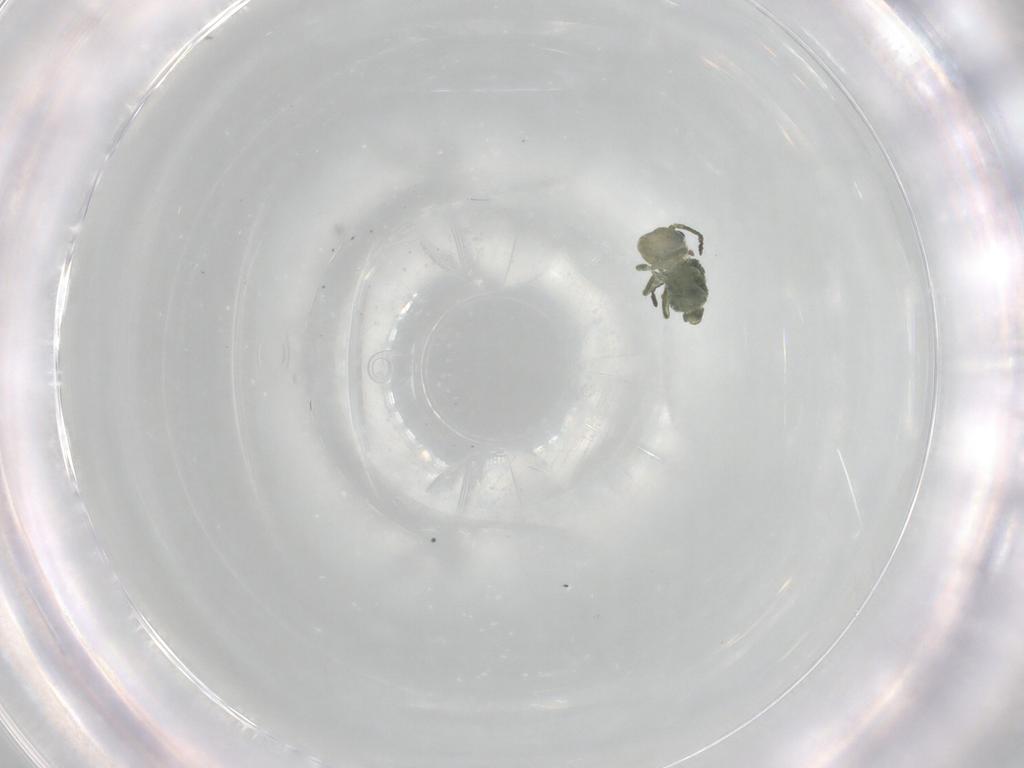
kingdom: Animalia
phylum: Arthropoda
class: Collembola
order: Symphypleona
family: Sminthuridae
